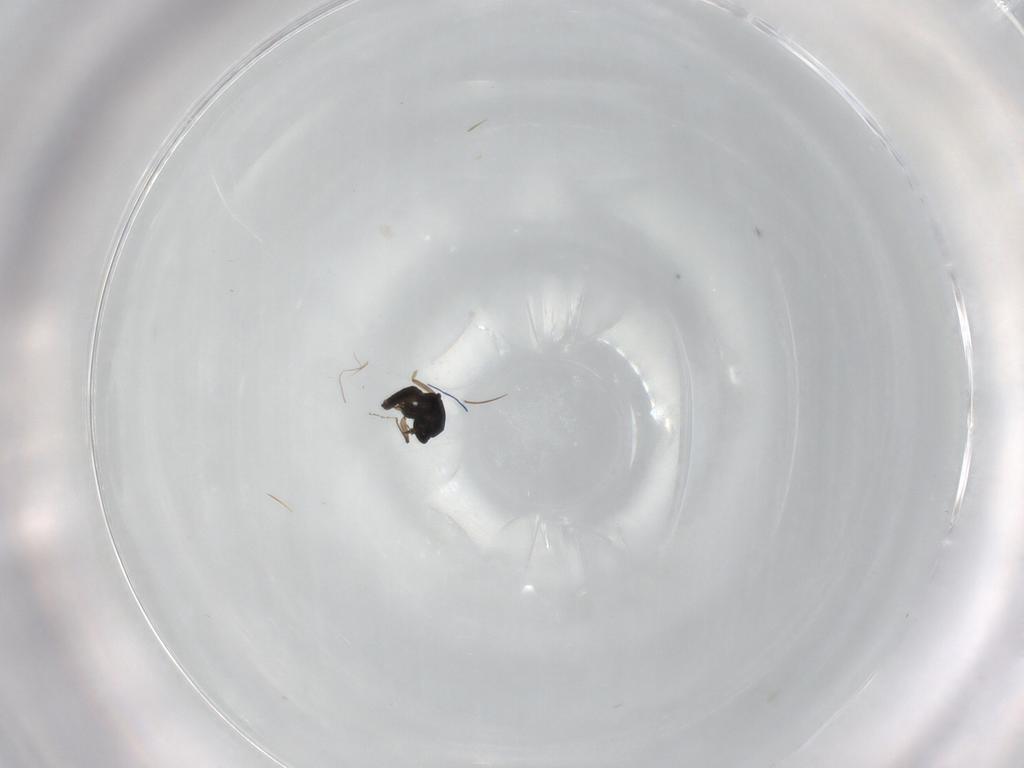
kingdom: Animalia
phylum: Arthropoda
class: Insecta
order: Diptera
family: Ceratopogonidae
